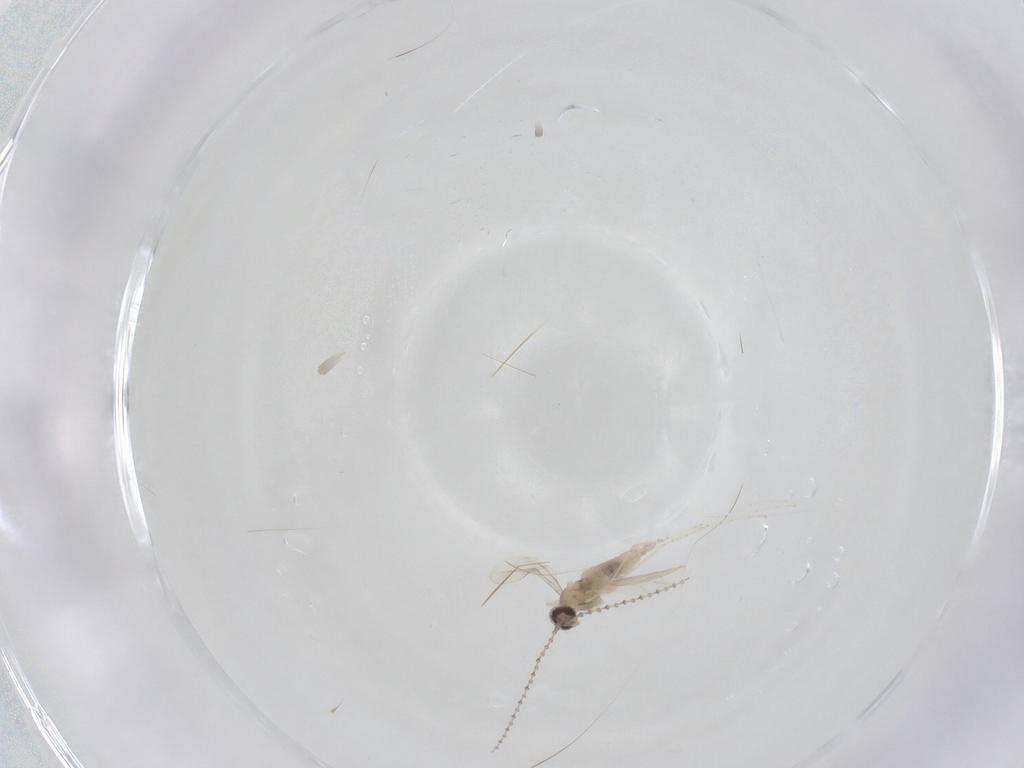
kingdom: Animalia
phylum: Arthropoda
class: Insecta
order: Diptera
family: Cecidomyiidae
